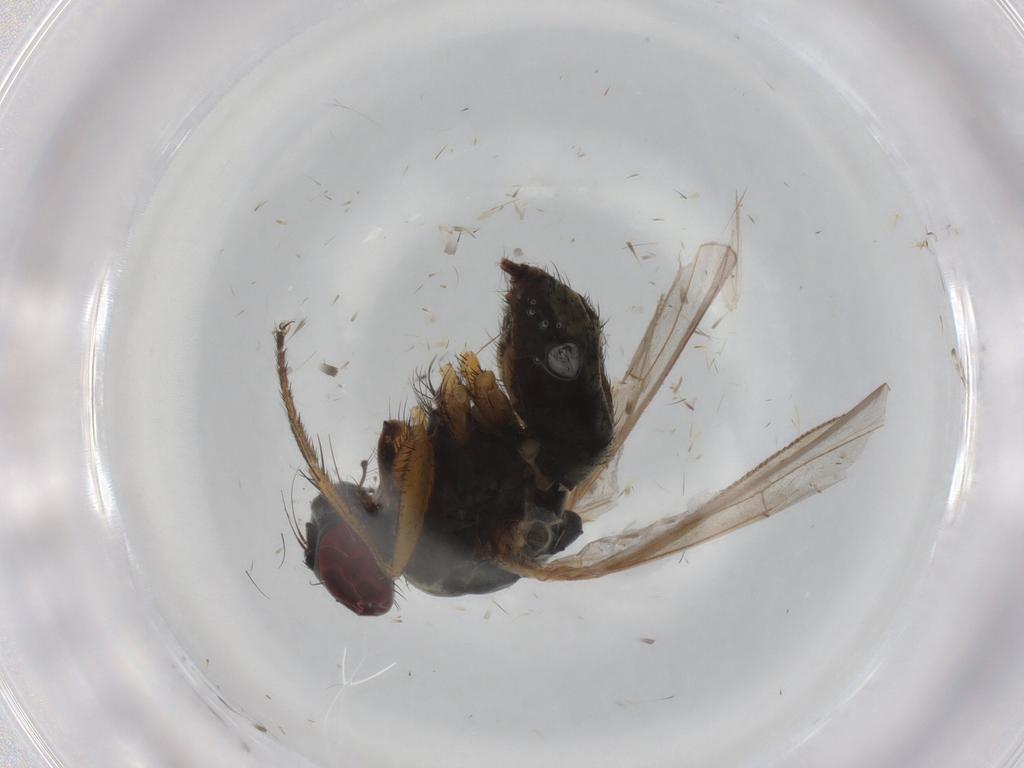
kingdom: Animalia
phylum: Arthropoda
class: Insecta
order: Diptera
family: Muscidae
